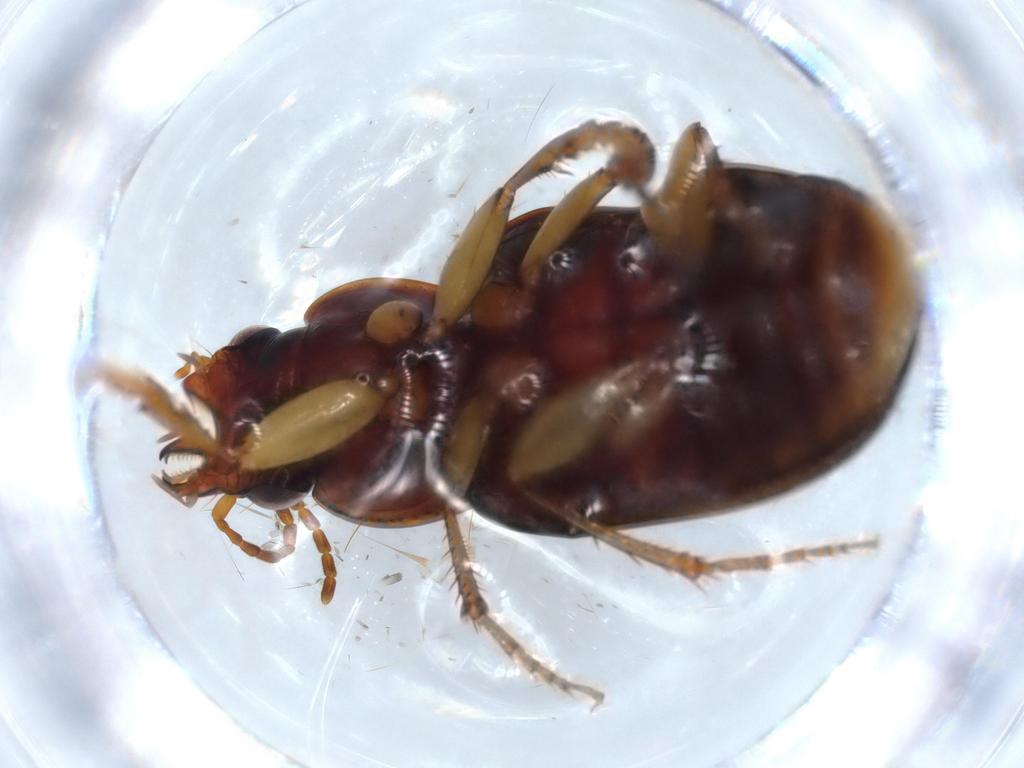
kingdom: Animalia
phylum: Arthropoda
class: Insecta
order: Coleoptera
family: Carabidae
